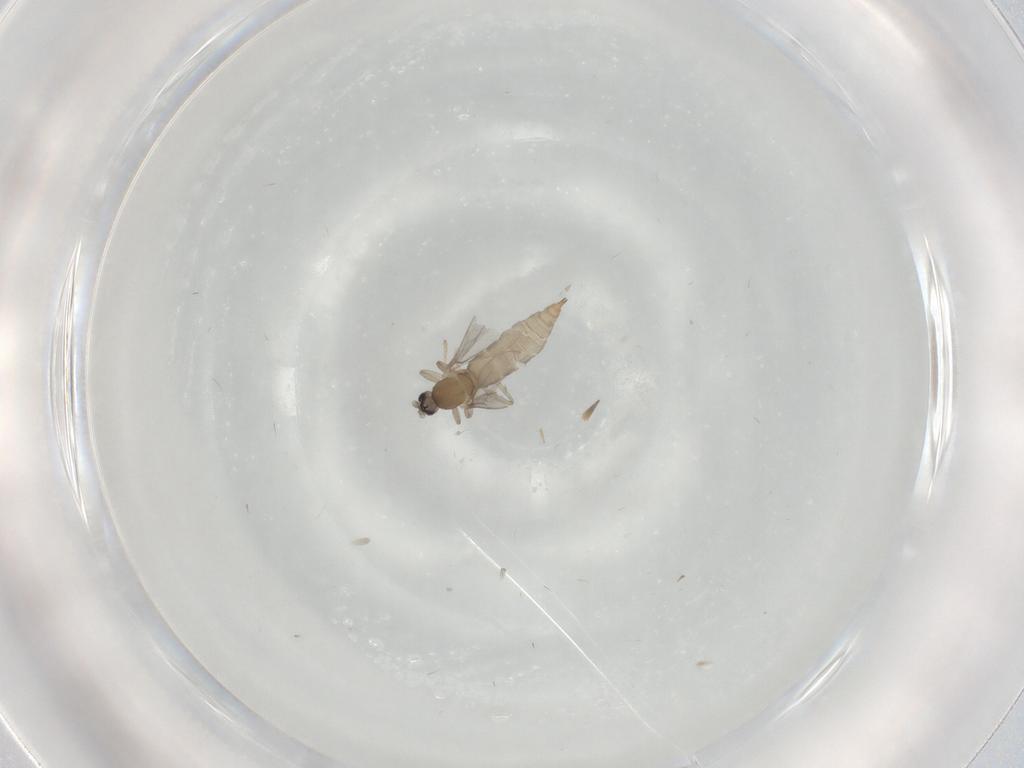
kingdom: Animalia
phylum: Arthropoda
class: Insecta
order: Diptera
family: Cecidomyiidae
